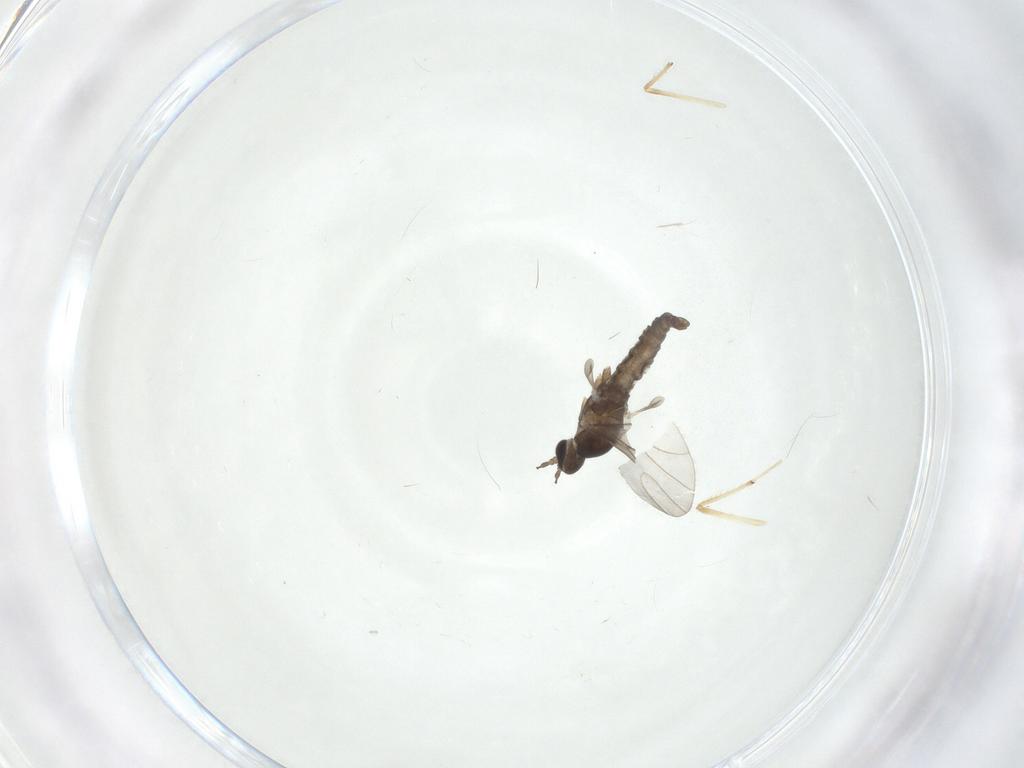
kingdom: Animalia
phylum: Arthropoda
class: Insecta
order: Diptera
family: Cecidomyiidae
